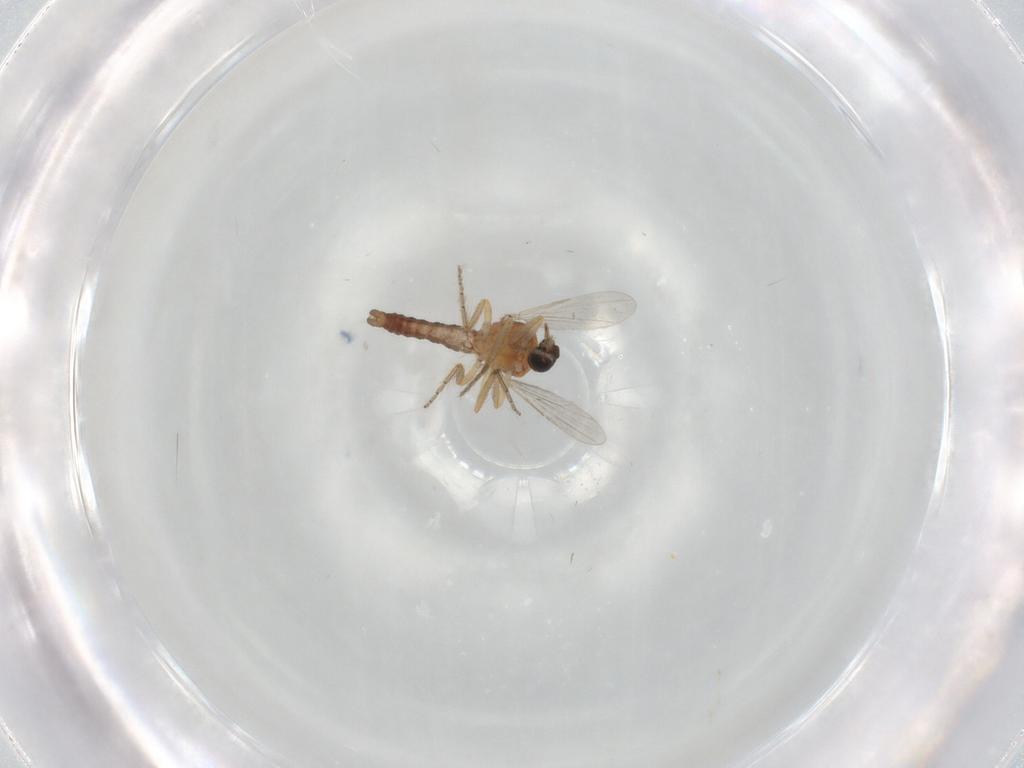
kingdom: Animalia
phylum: Arthropoda
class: Insecta
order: Diptera
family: Ceratopogonidae
